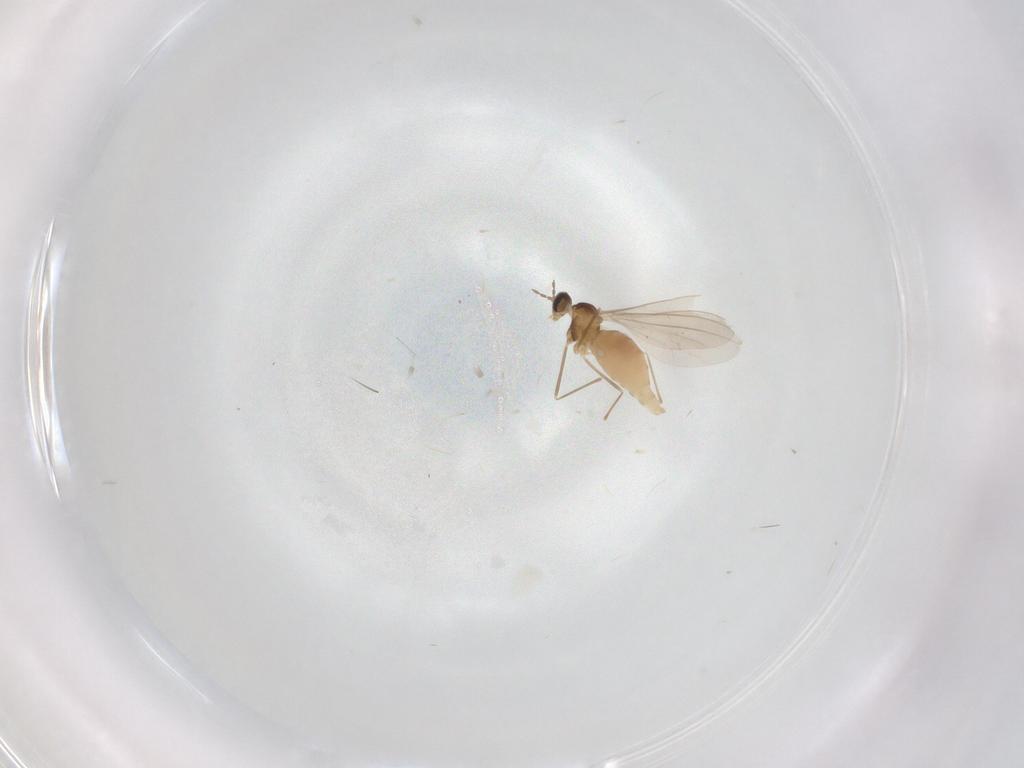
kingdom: Animalia
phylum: Arthropoda
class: Insecta
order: Diptera
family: Cecidomyiidae
